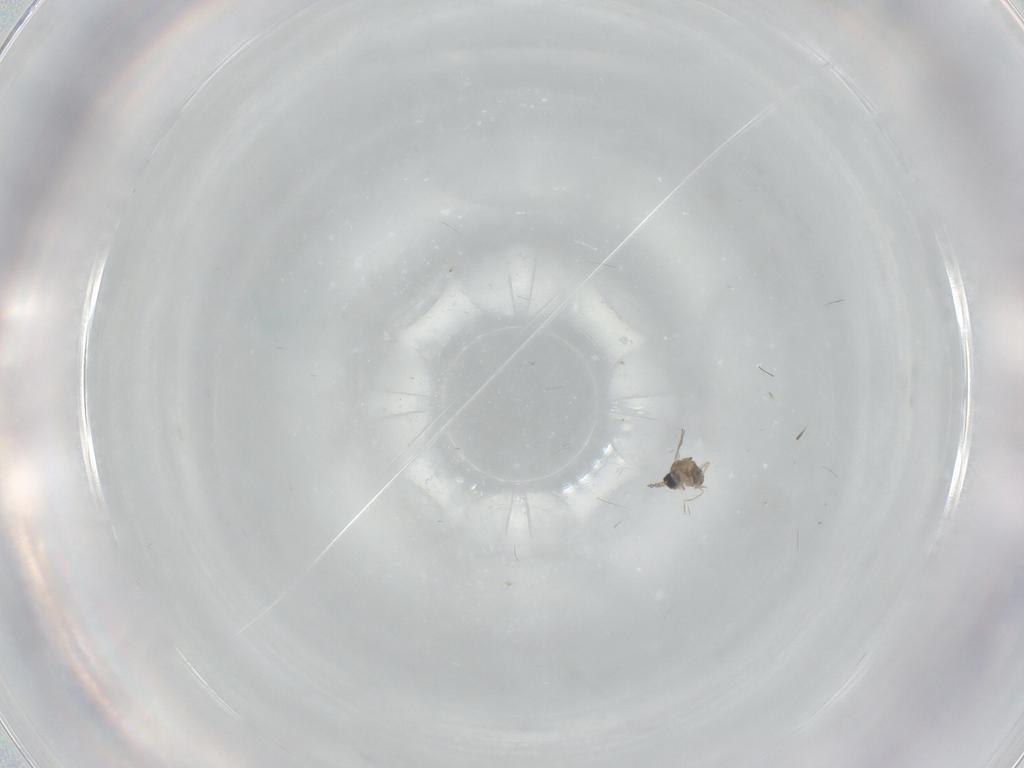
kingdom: Animalia
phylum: Arthropoda
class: Insecta
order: Diptera
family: Cecidomyiidae
